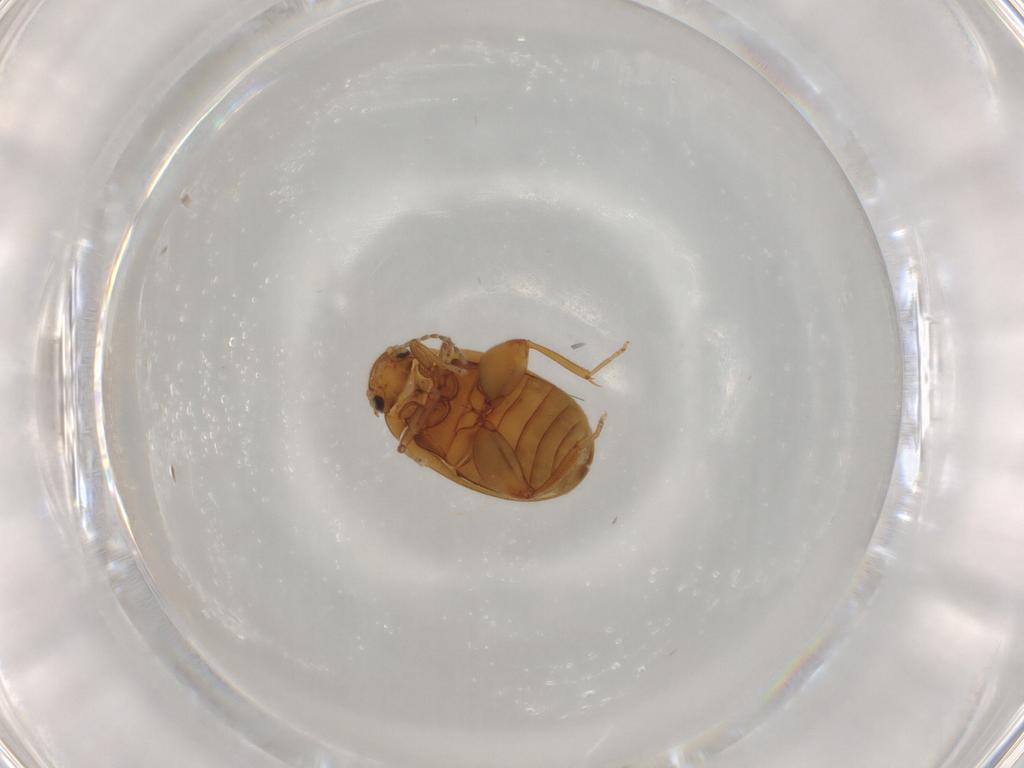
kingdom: Animalia
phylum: Arthropoda
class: Insecta
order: Coleoptera
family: Scirtidae
